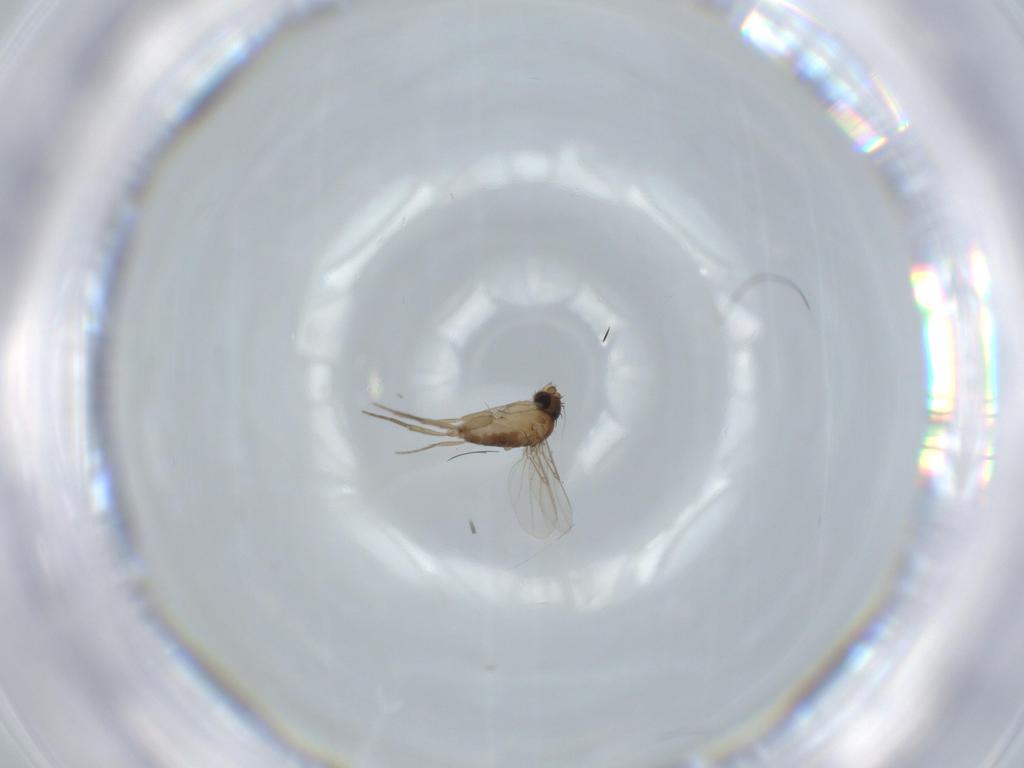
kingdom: Animalia
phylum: Arthropoda
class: Insecta
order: Diptera
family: Phoridae
